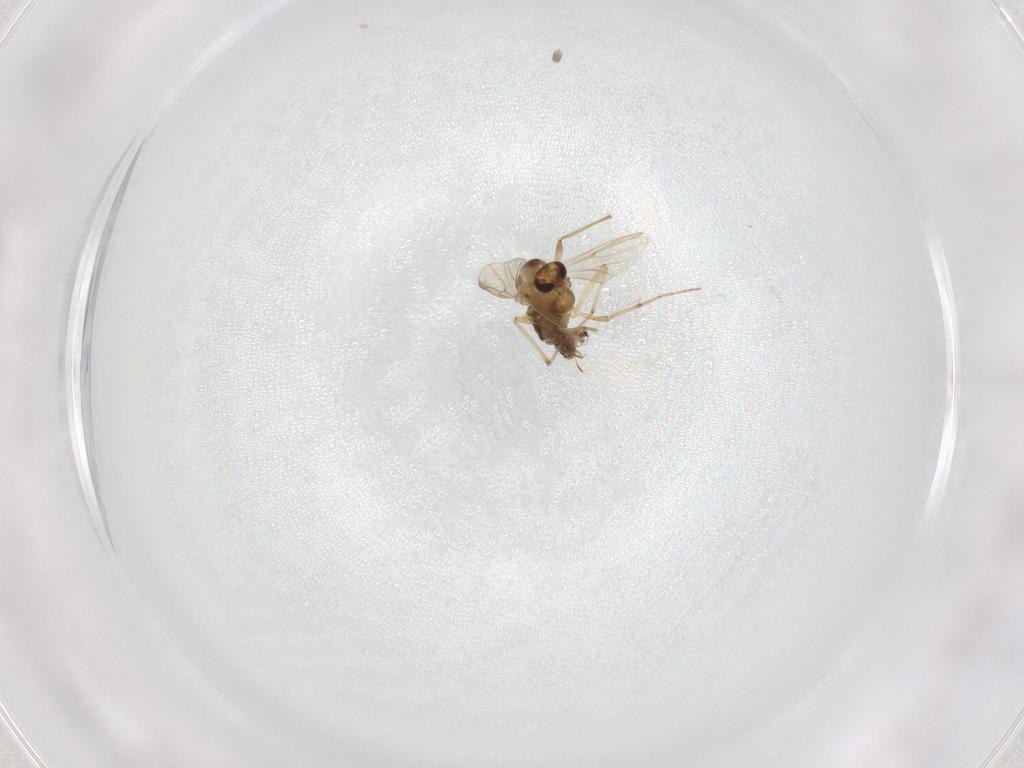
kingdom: Animalia
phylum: Arthropoda
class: Insecta
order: Diptera
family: Chironomidae
